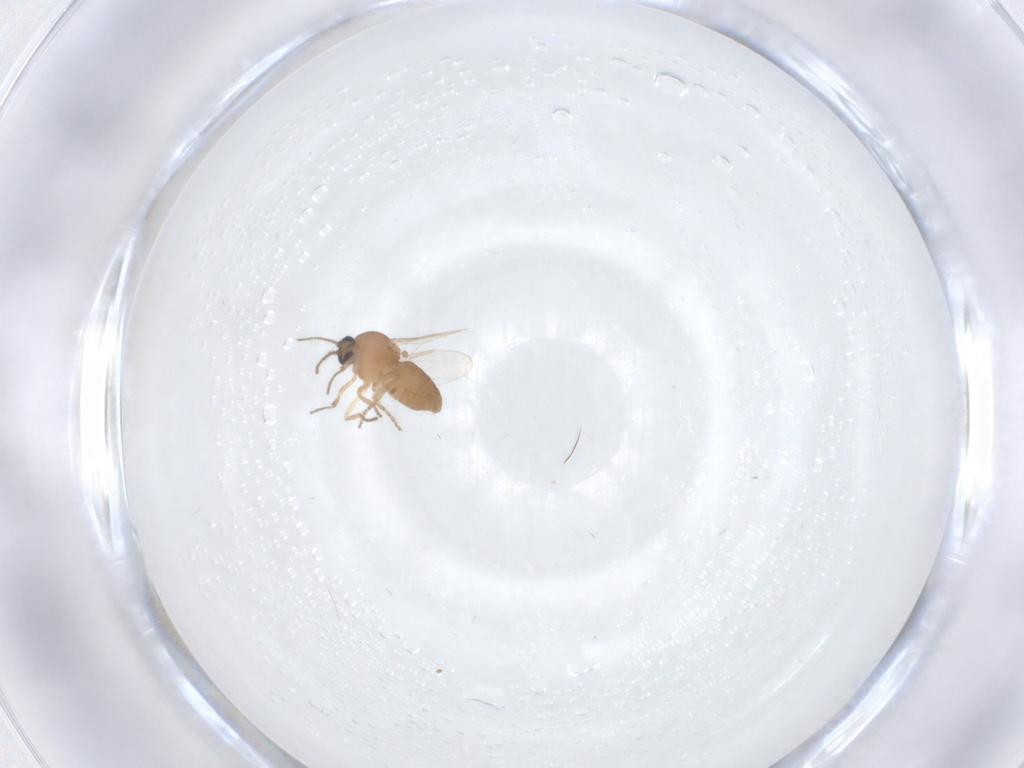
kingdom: Animalia
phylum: Arthropoda
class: Insecta
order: Diptera
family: Ceratopogonidae
